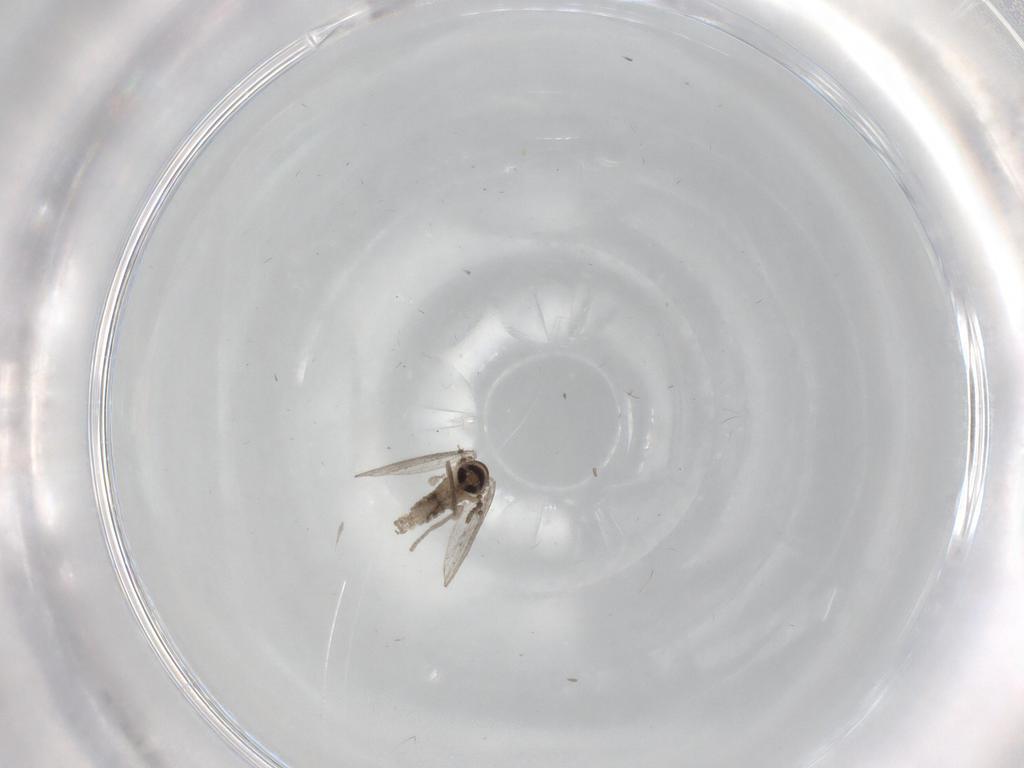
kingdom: Animalia
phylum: Arthropoda
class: Insecta
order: Diptera
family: Psychodidae
